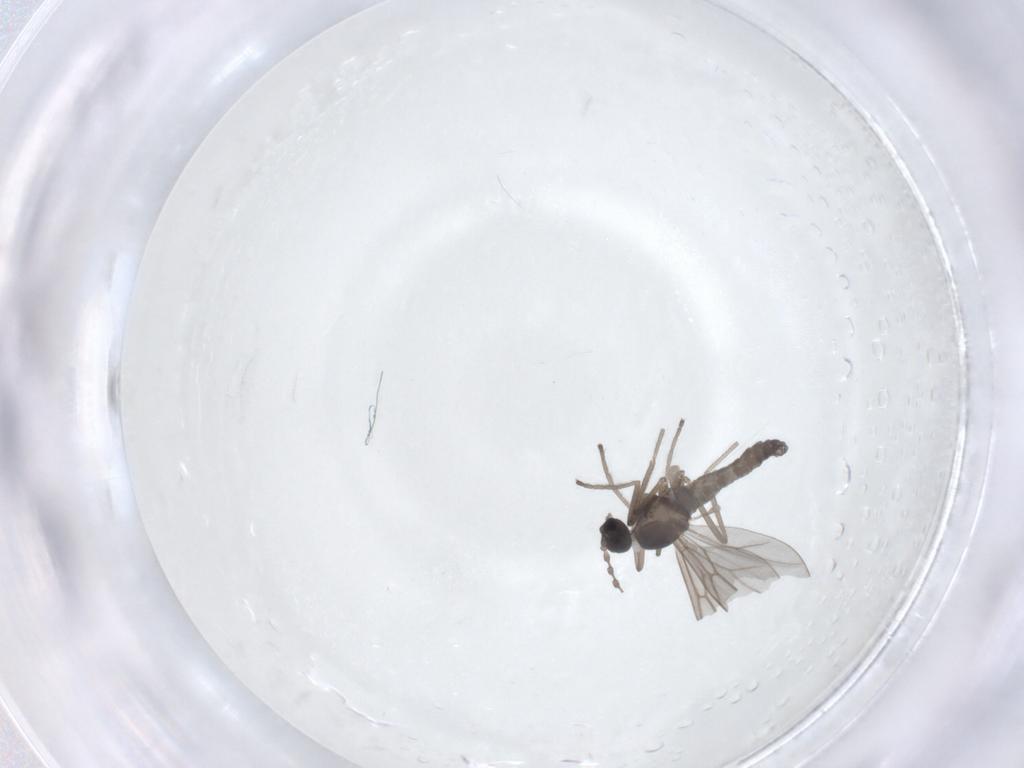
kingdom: Animalia
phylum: Arthropoda
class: Insecta
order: Diptera
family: Cecidomyiidae
